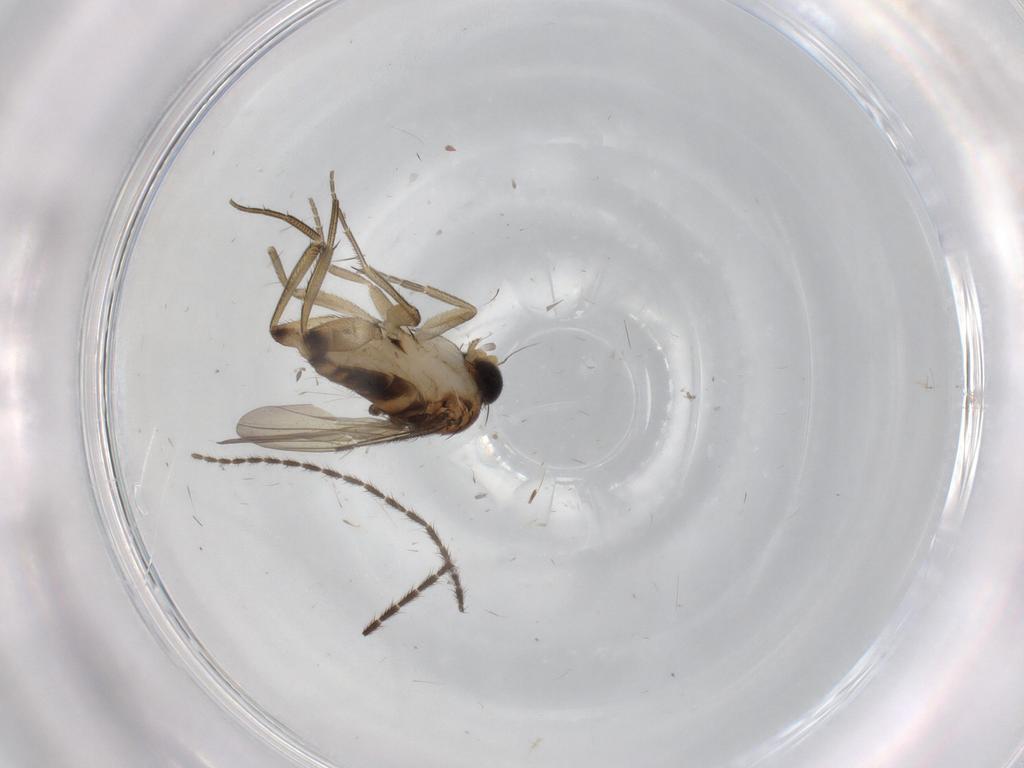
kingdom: Animalia
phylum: Arthropoda
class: Insecta
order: Diptera
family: Phoridae
